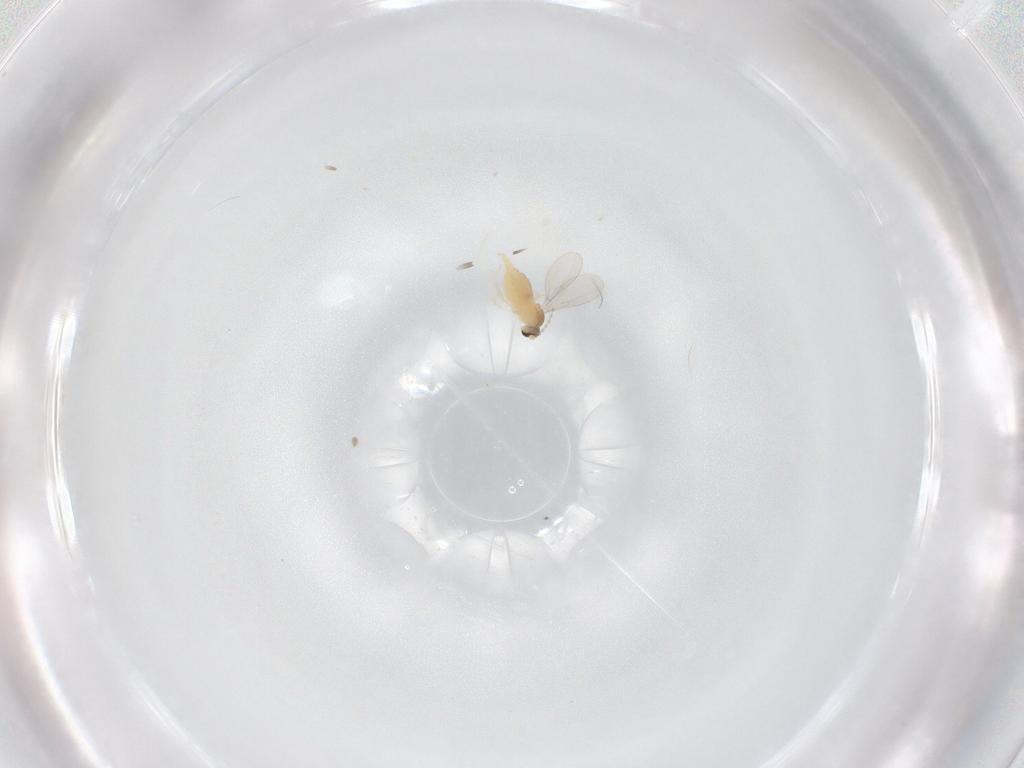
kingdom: Animalia
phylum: Arthropoda
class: Insecta
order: Diptera
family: Cecidomyiidae
